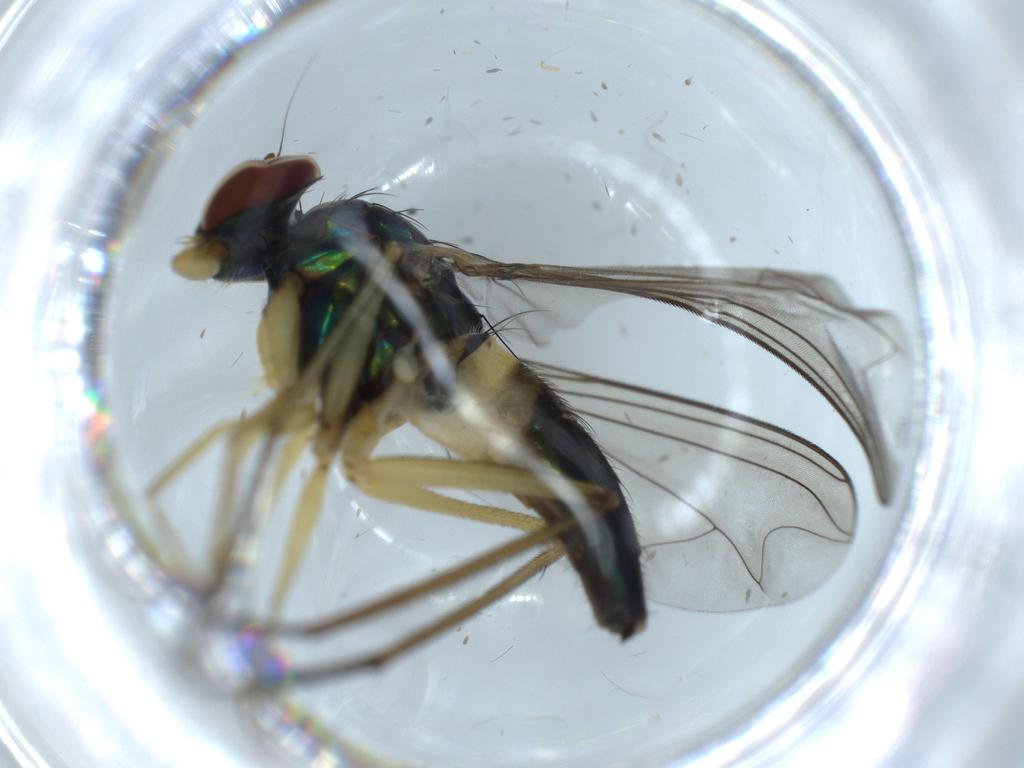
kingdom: Animalia
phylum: Arthropoda
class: Insecta
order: Diptera
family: Dolichopodidae
